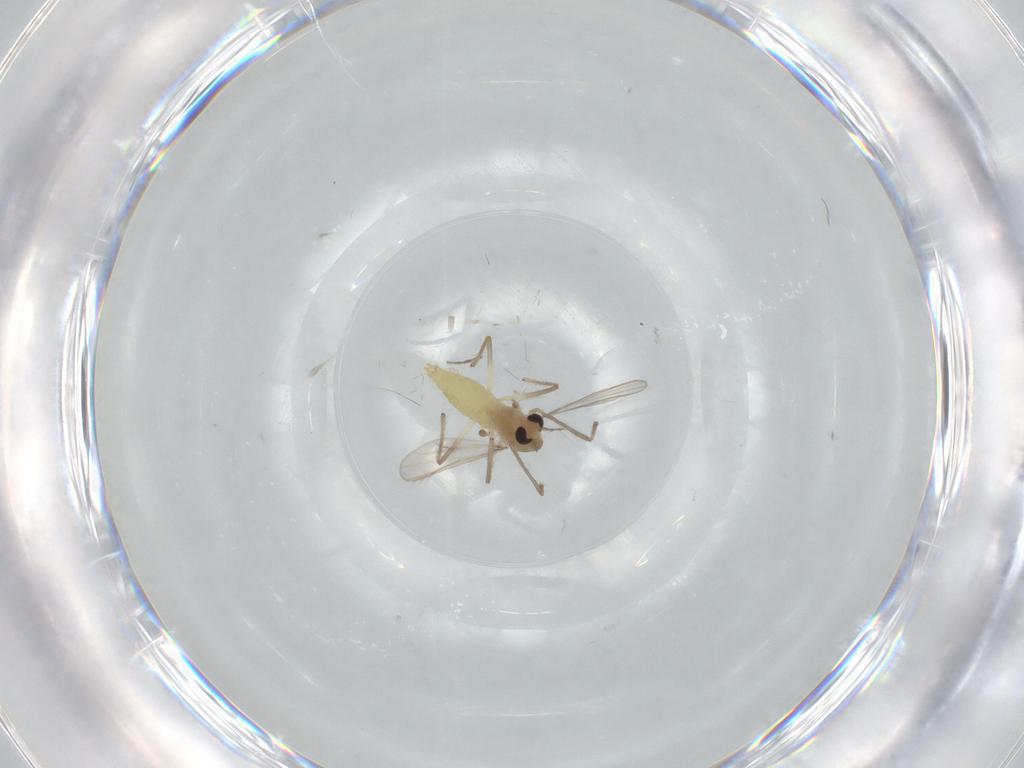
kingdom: Animalia
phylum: Arthropoda
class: Insecta
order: Diptera
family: Chironomidae
